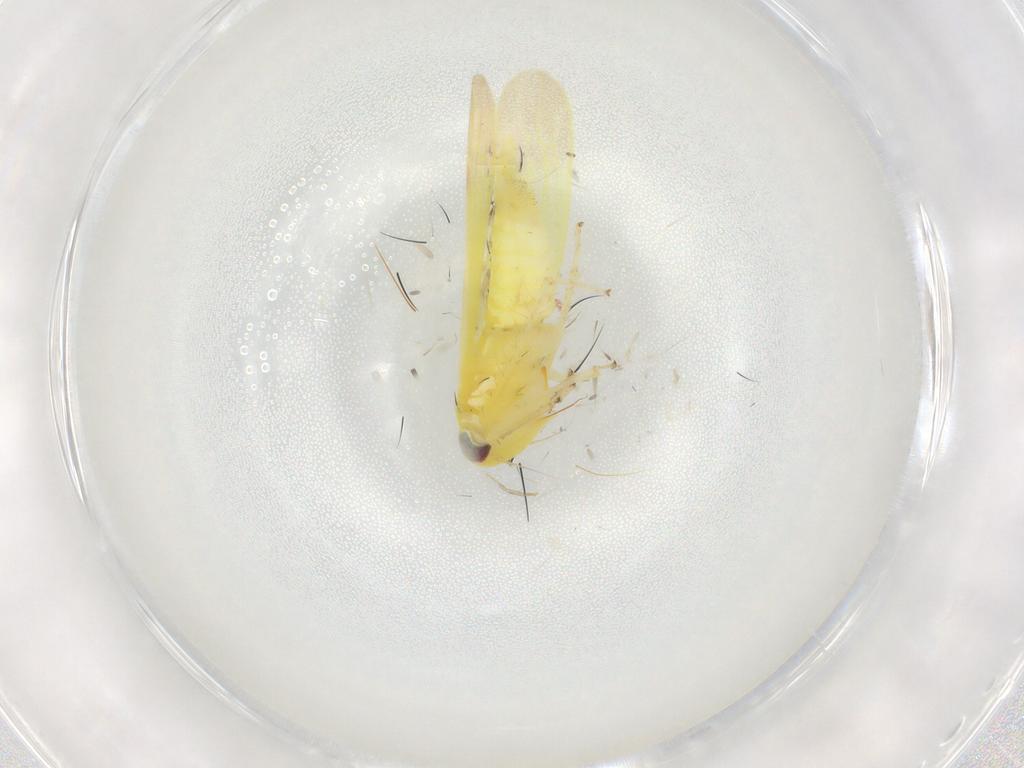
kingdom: Animalia
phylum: Arthropoda
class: Insecta
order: Hemiptera
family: Cicadellidae
